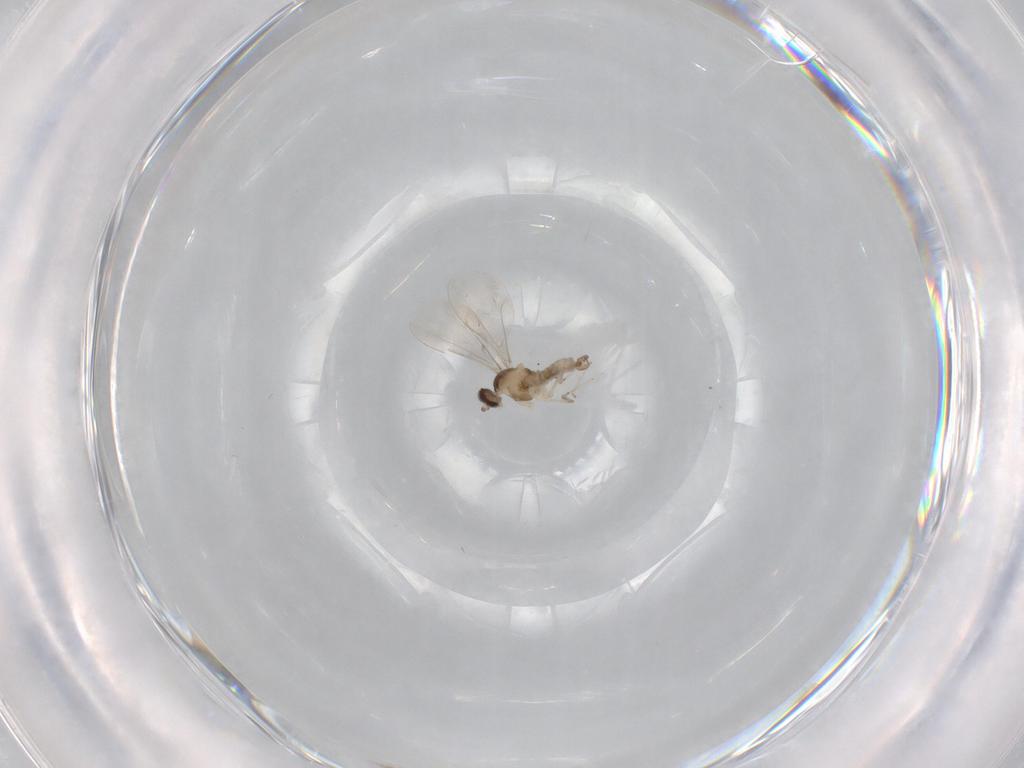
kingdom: Animalia
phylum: Arthropoda
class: Insecta
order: Diptera
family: Cecidomyiidae
